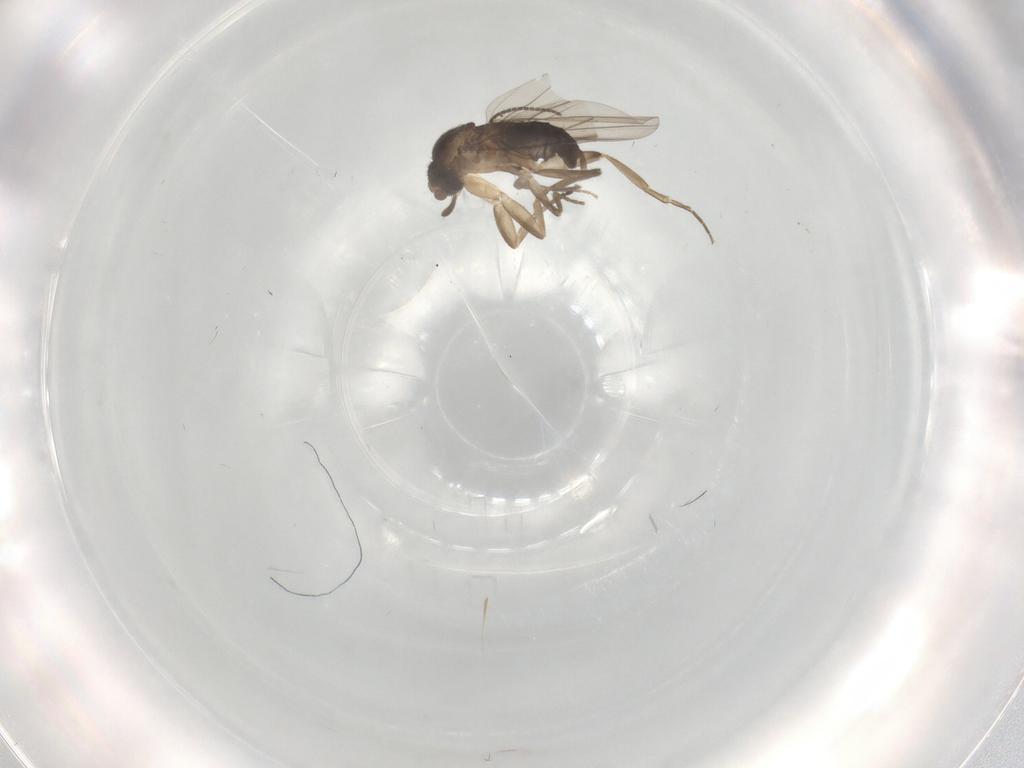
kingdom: Animalia
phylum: Arthropoda
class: Insecta
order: Diptera
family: Sciaridae
